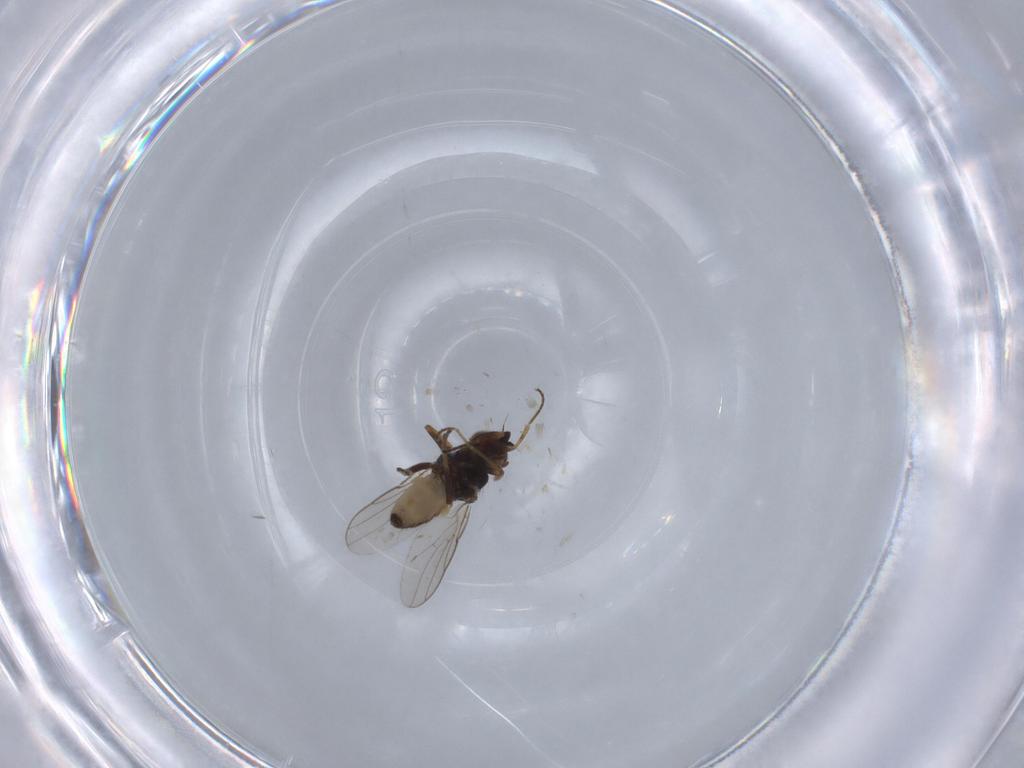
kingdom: Animalia
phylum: Arthropoda
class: Insecta
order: Diptera
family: Chloropidae
